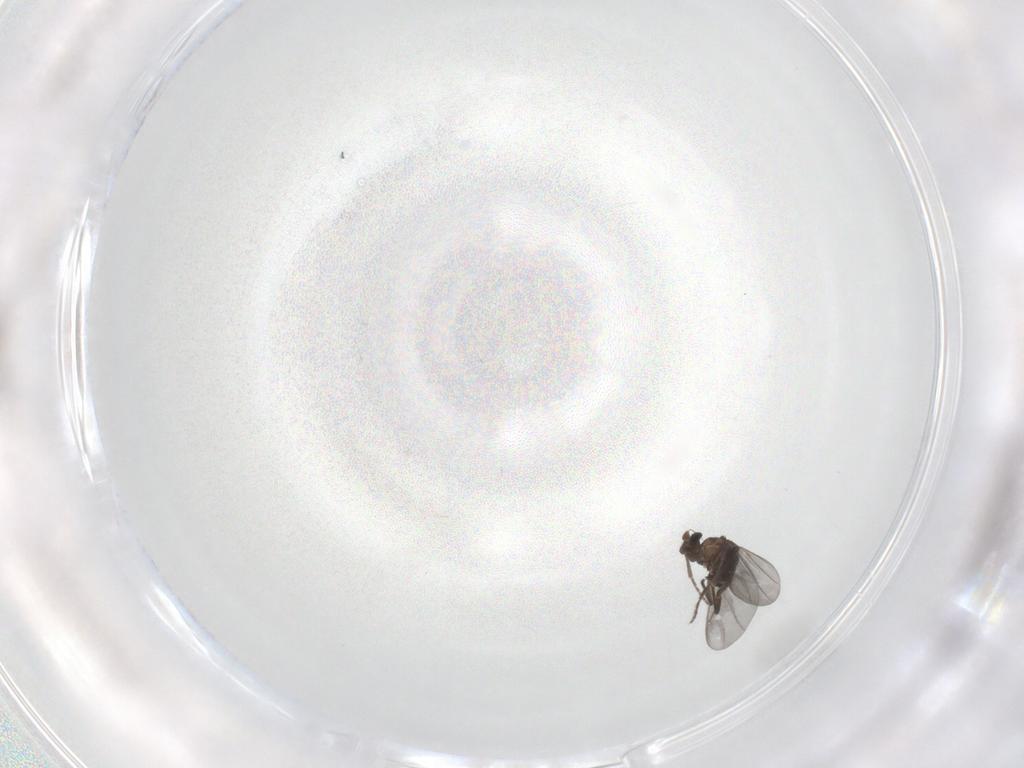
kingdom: Animalia
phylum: Arthropoda
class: Insecta
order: Diptera
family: Phoridae
